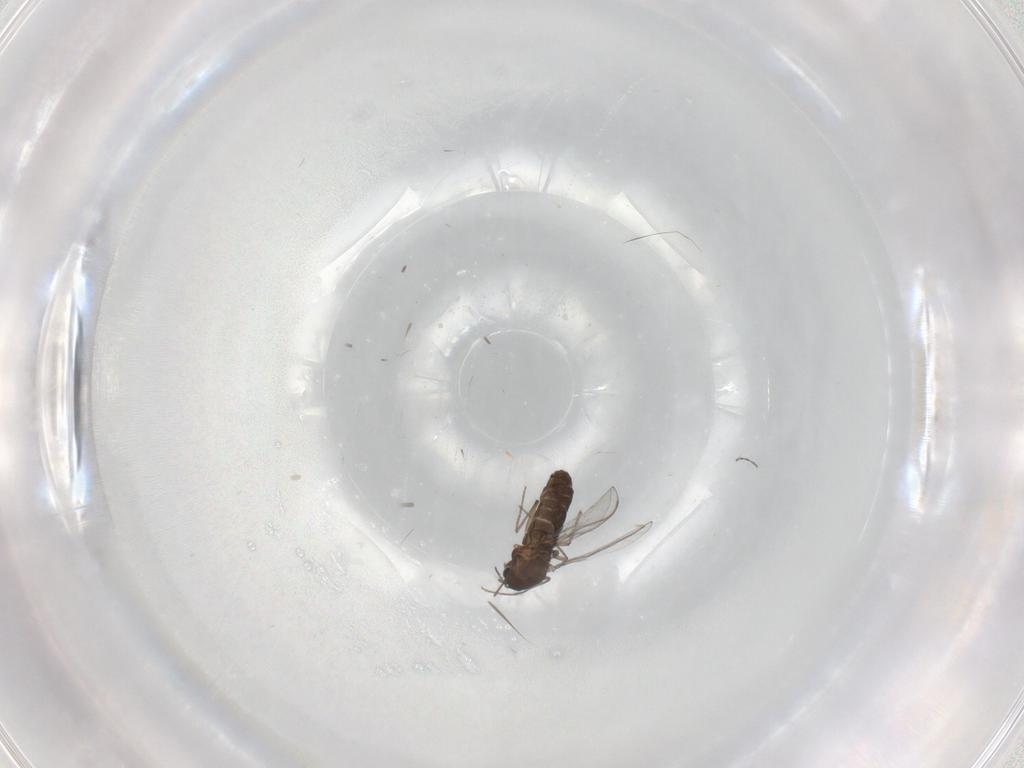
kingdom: Animalia
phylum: Arthropoda
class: Insecta
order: Diptera
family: Chironomidae
